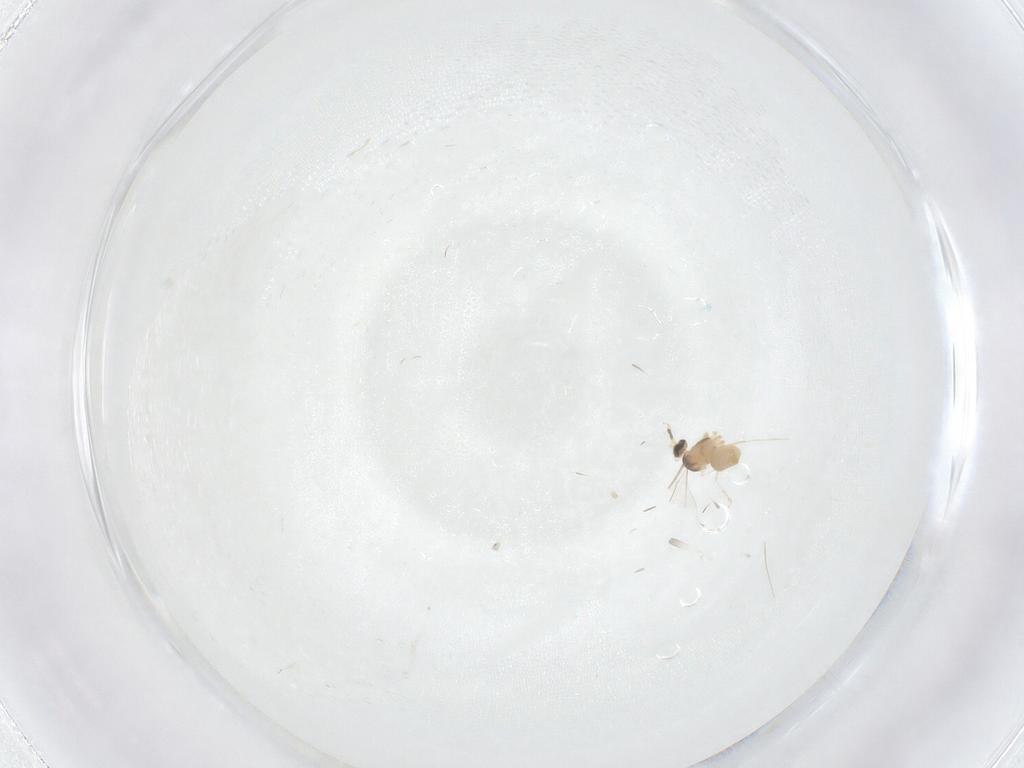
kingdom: Animalia
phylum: Arthropoda
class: Insecta
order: Diptera
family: Cecidomyiidae
